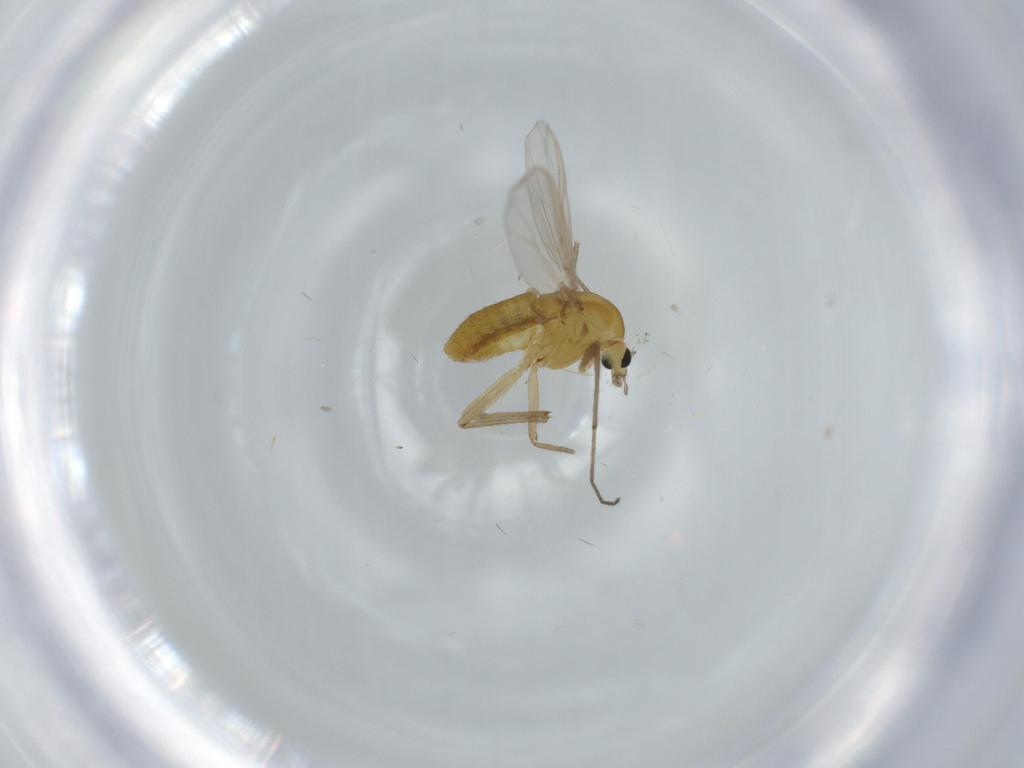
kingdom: Animalia
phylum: Arthropoda
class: Insecta
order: Diptera
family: Chironomidae
